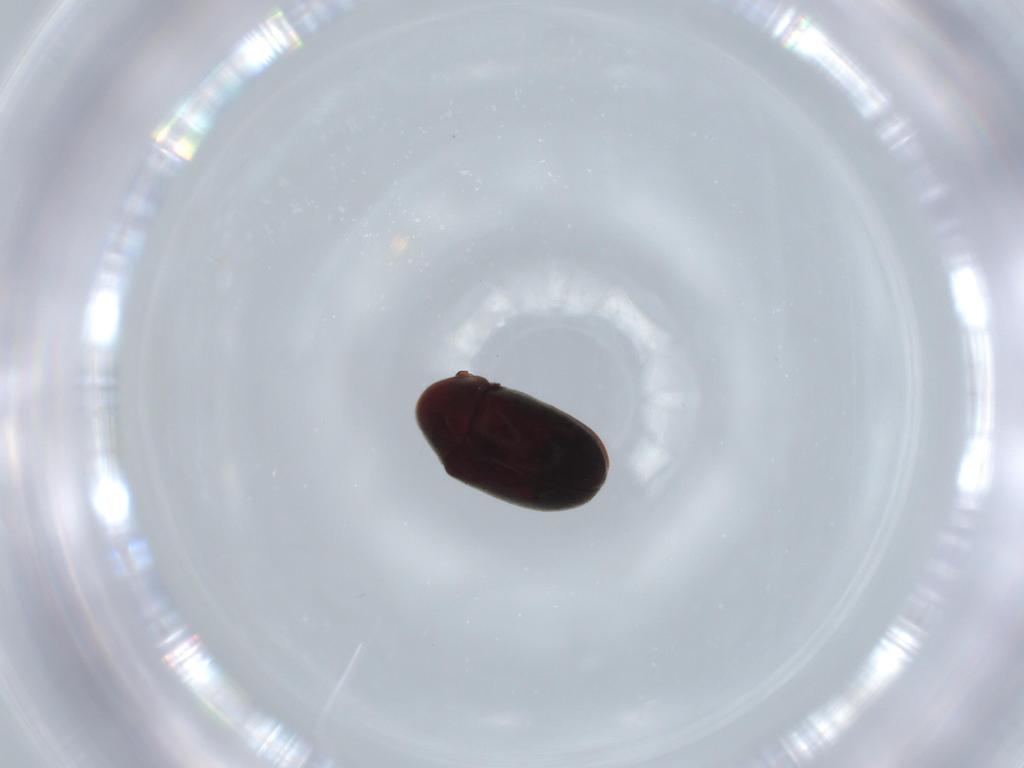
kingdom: Animalia
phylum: Arthropoda
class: Insecta
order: Coleoptera
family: Ptinidae
